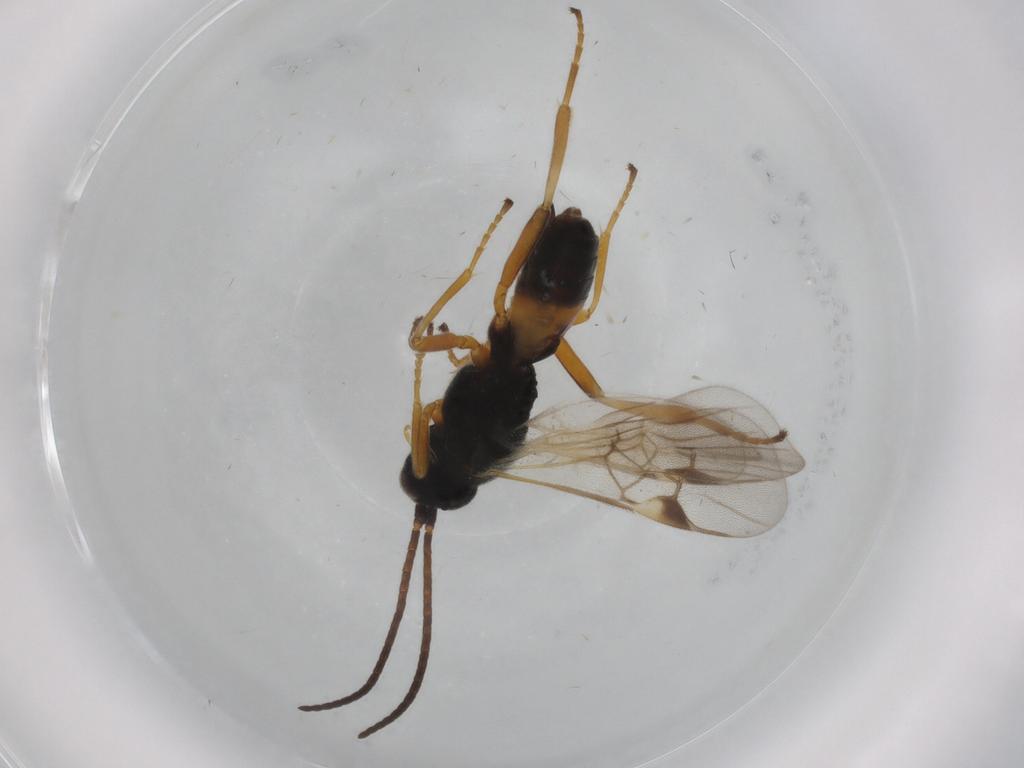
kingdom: Animalia
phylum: Arthropoda
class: Insecta
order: Hymenoptera
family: Braconidae
